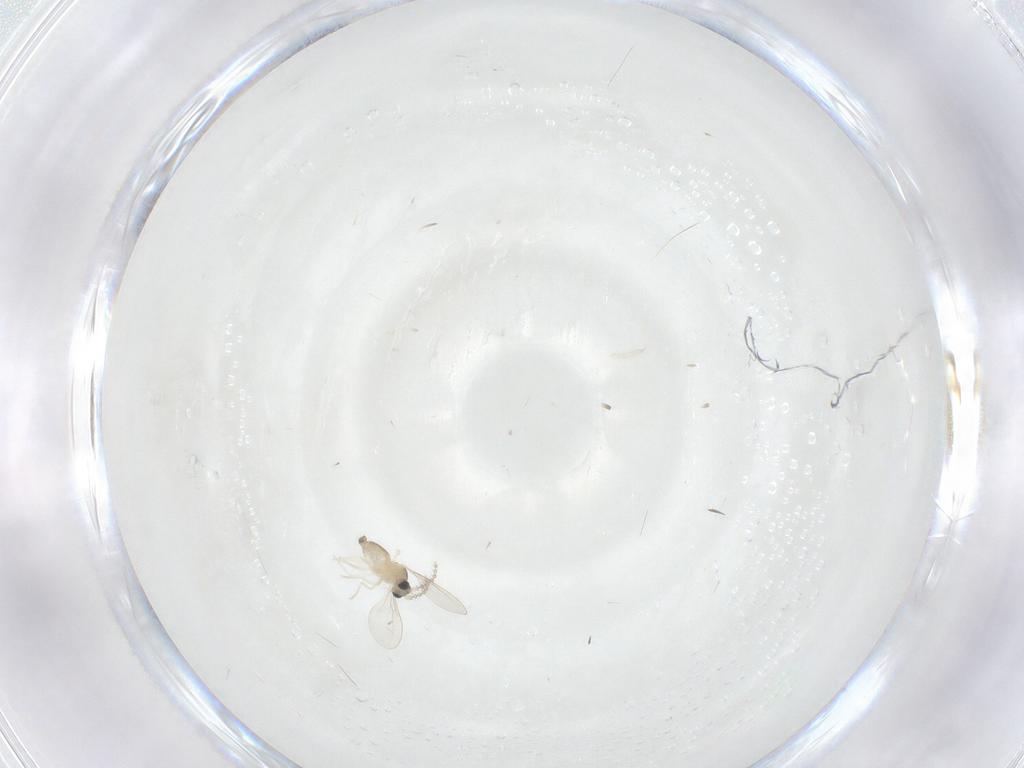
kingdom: Animalia
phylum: Arthropoda
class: Insecta
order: Diptera
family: Cecidomyiidae
